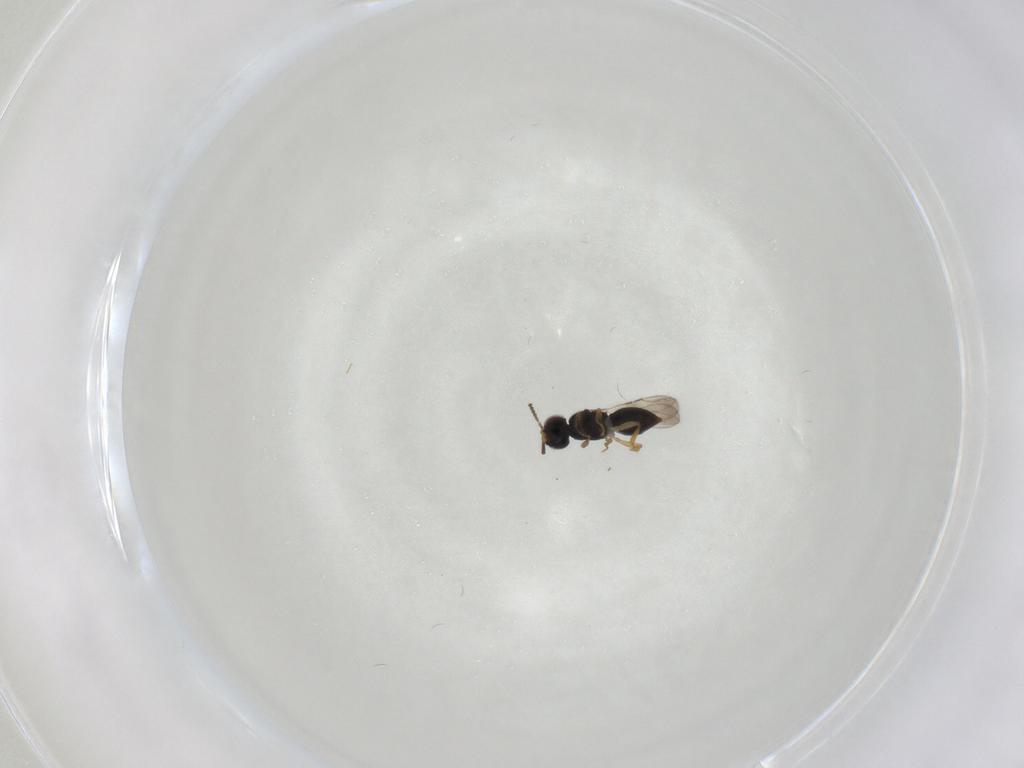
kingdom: Animalia
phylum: Arthropoda
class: Insecta
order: Hymenoptera
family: Ceraphronidae
